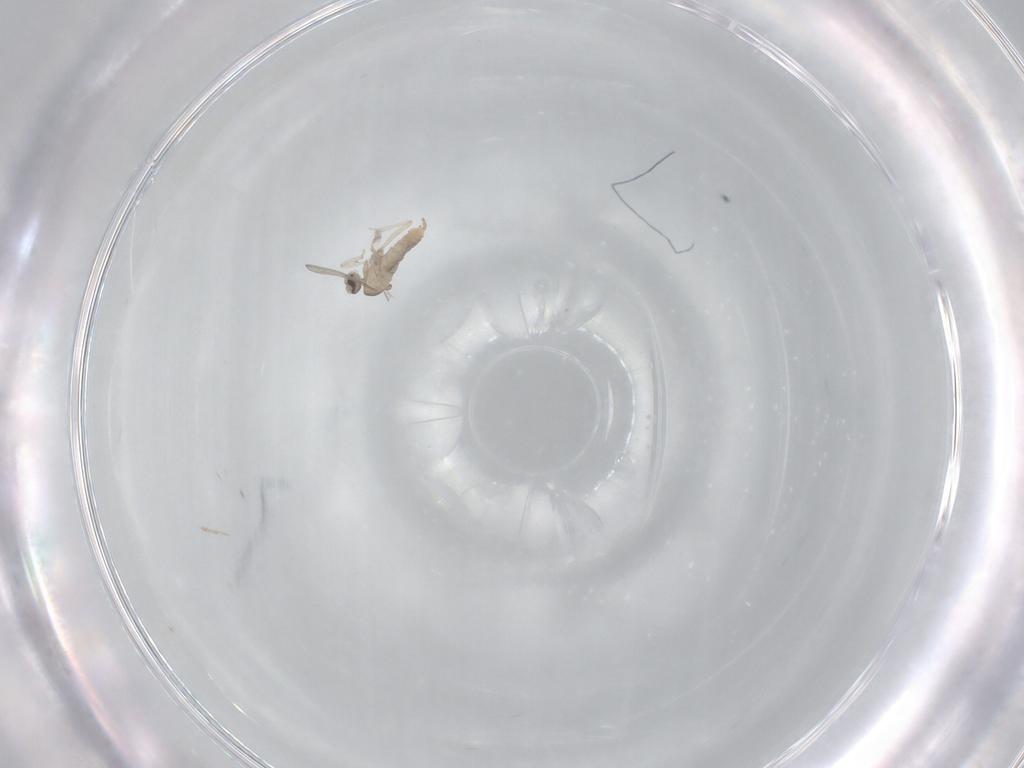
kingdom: Animalia
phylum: Arthropoda
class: Insecta
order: Diptera
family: Cecidomyiidae
